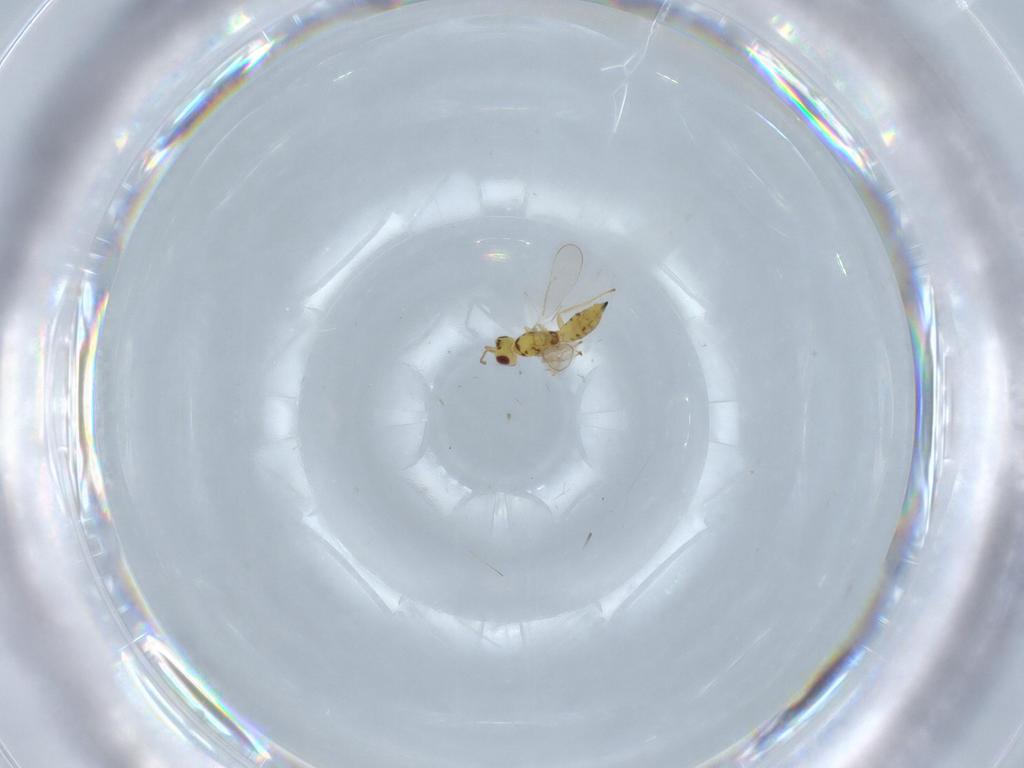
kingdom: Animalia
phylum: Arthropoda
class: Insecta
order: Hymenoptera
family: Eulophidae
